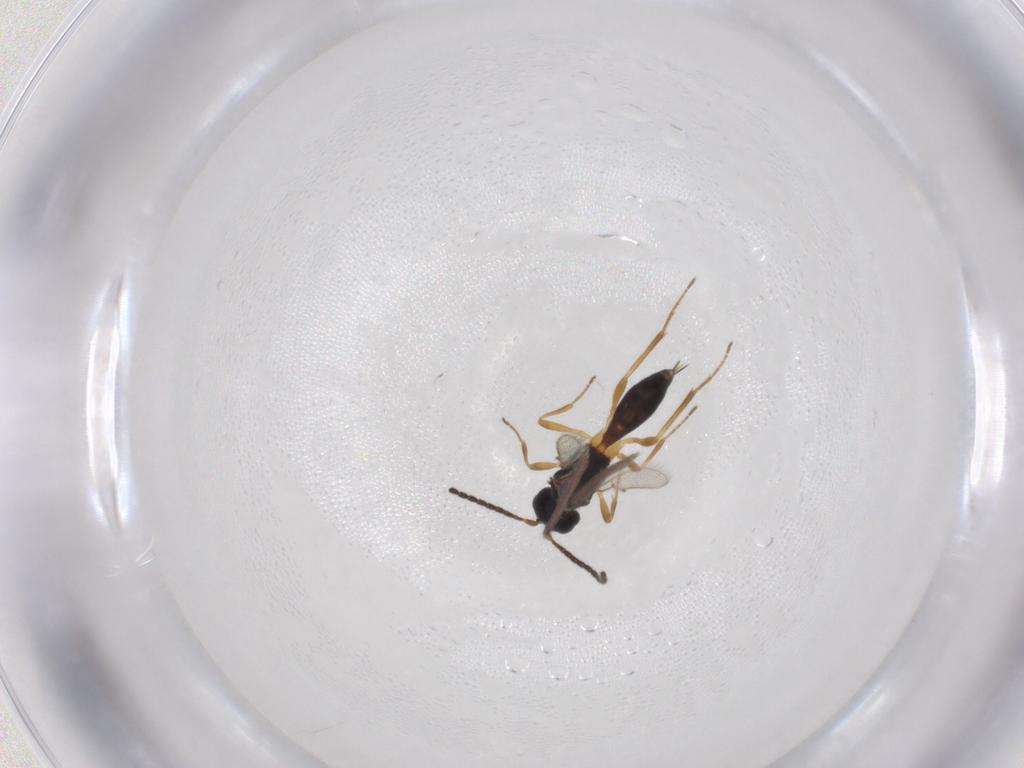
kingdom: Animalia
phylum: Arthropoda
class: Insecta
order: Hymenoptera
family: Braconidae
